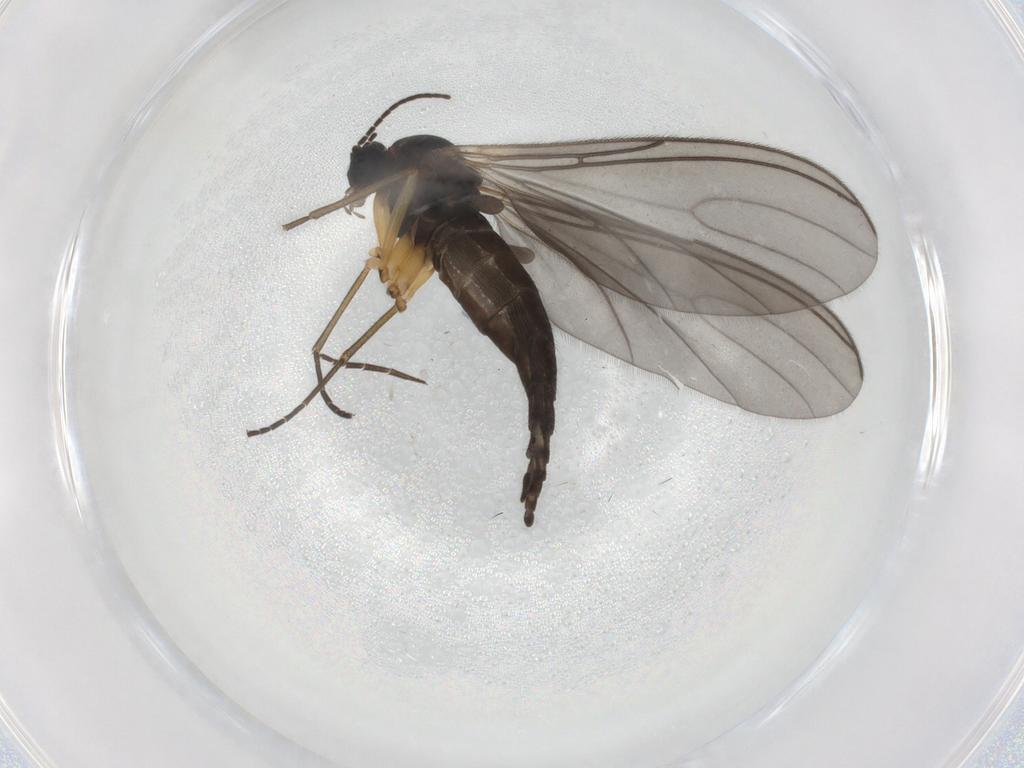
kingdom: Animalia
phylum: Arthropoda
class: Insecta
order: Diptera
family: Sciaridae
